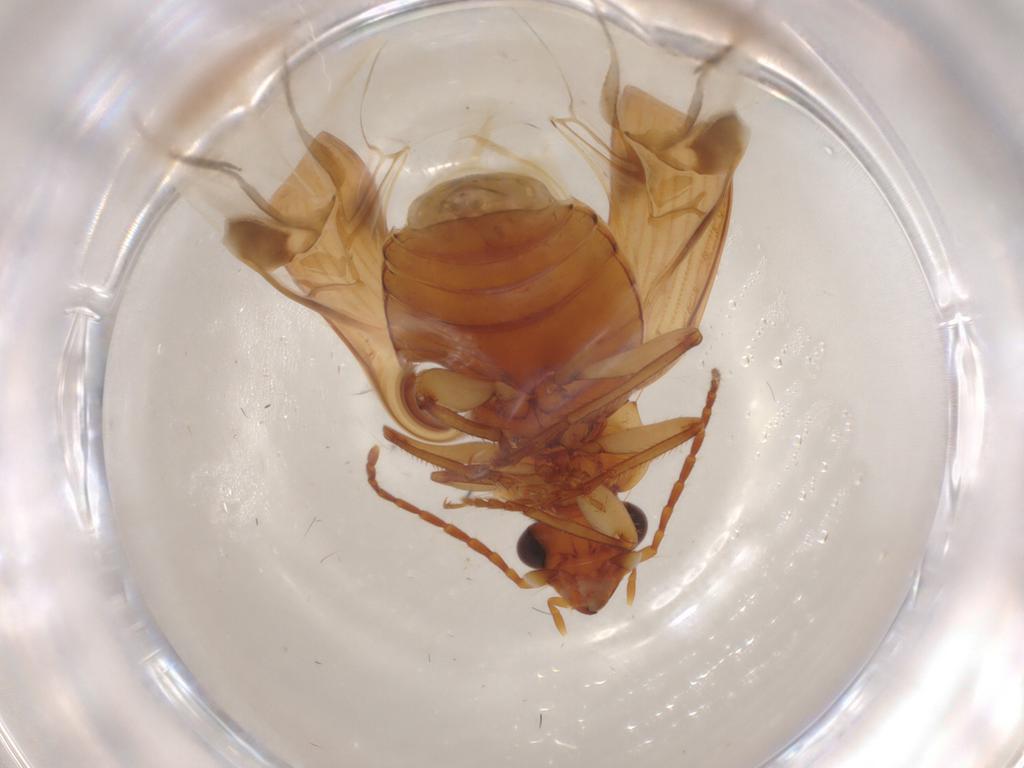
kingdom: Animalia
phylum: Arthropoda
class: Insecta
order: Coleoptera
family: Carabidae
